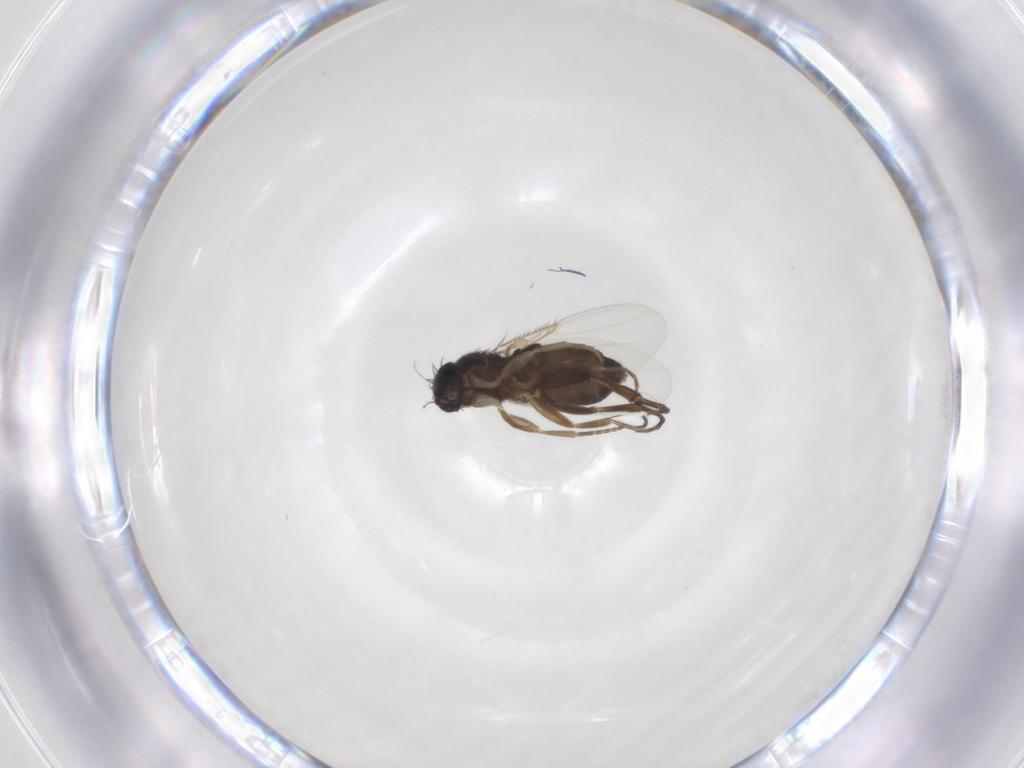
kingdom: Animalia
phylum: Arthropoda
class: Insecta
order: Diptera
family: Phoridae
